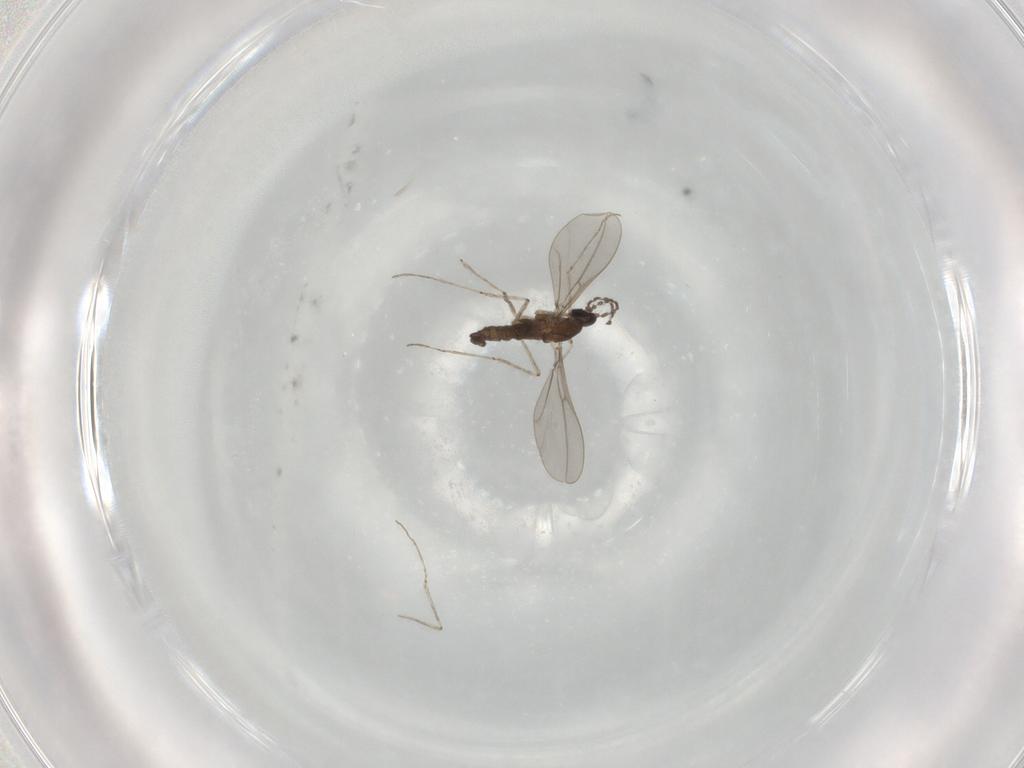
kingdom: Animalia
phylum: Arthropoda
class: Insecta
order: Diptera
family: Cecidomyiidae
